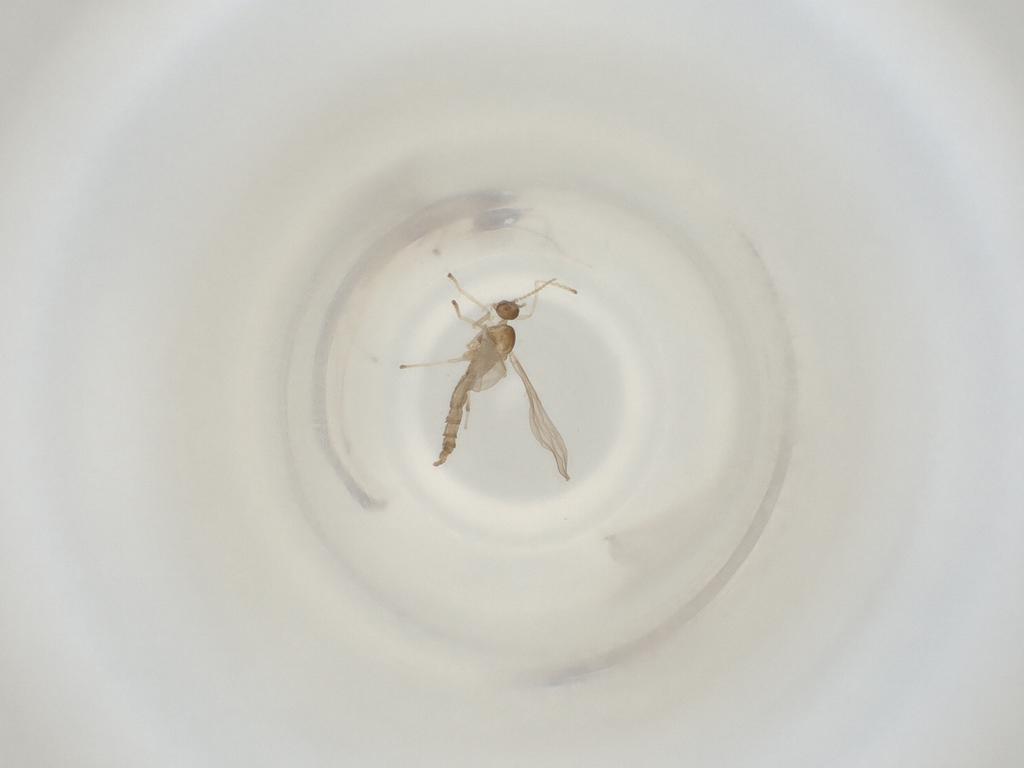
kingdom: Animalia
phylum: Arthropoda
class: Insecta
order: Diptera
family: Cecidomyiidae
